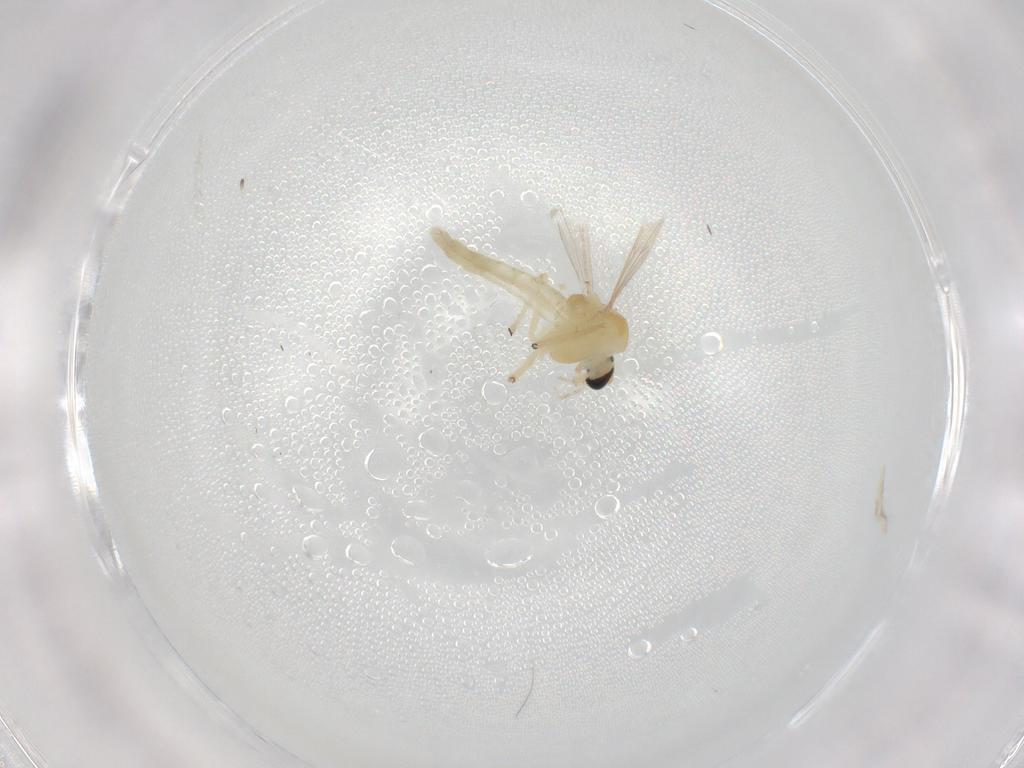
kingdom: Animalia
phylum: Arthropoda
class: Insecta
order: Diptera
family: Chironomidae
